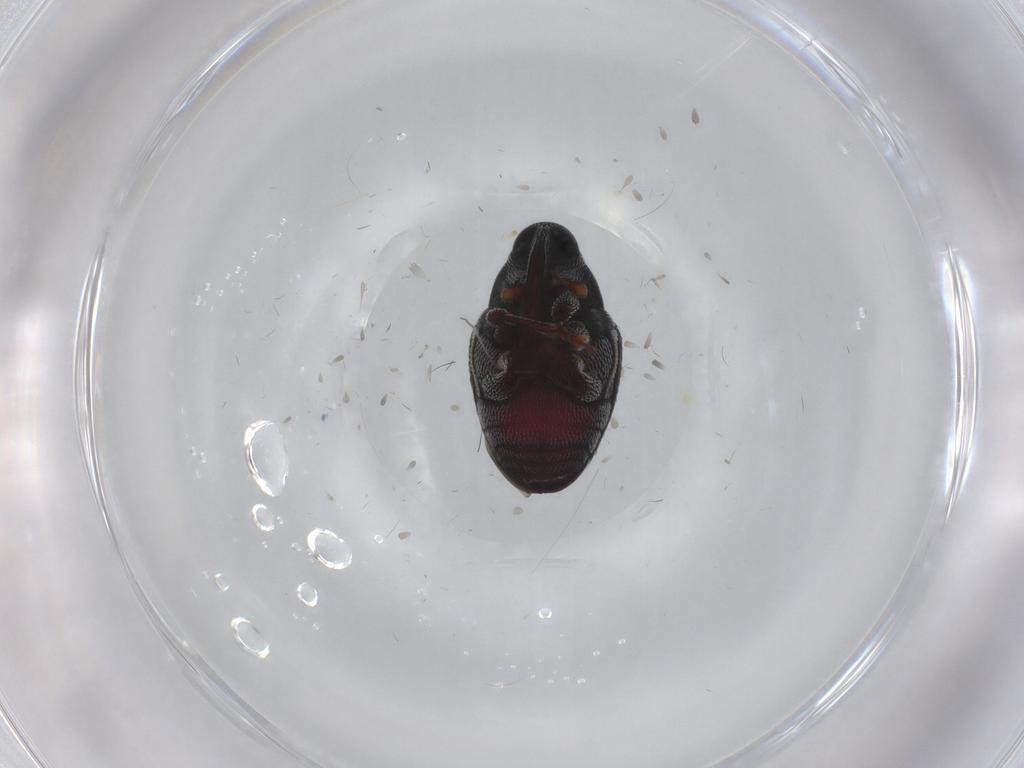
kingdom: Animalia
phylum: Arthropoda
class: Insecta
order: Coleoptera
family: Curculionidae
